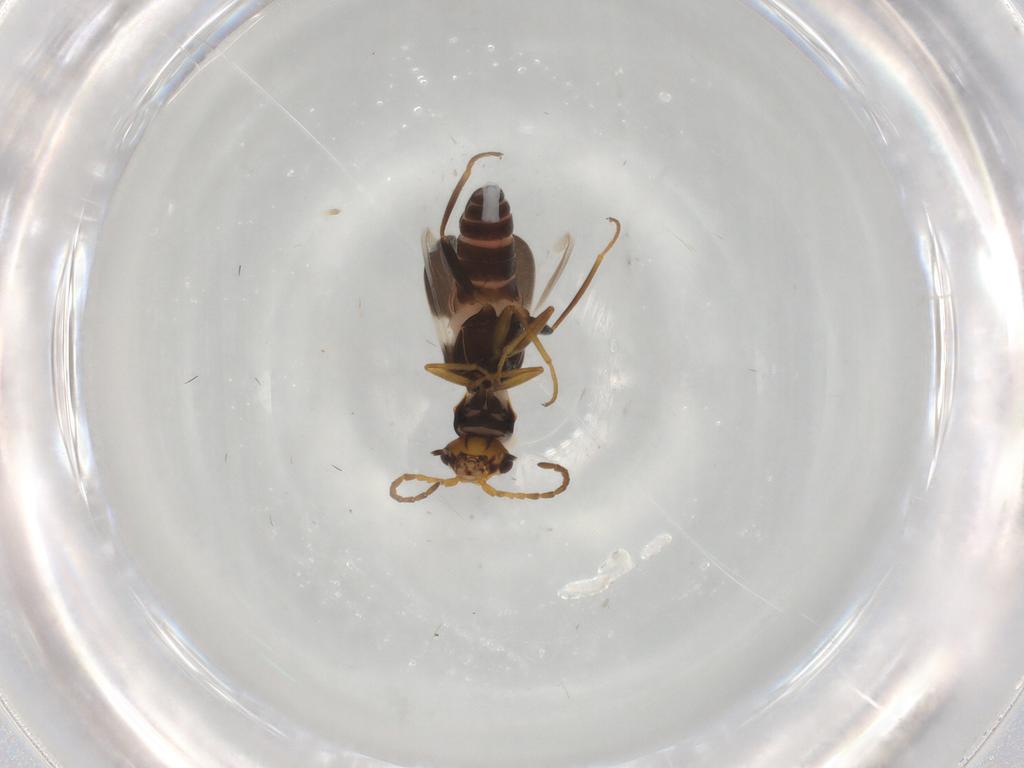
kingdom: Animalia
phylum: Arthropoda
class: Insecta
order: Coleoptera
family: Melyridae
